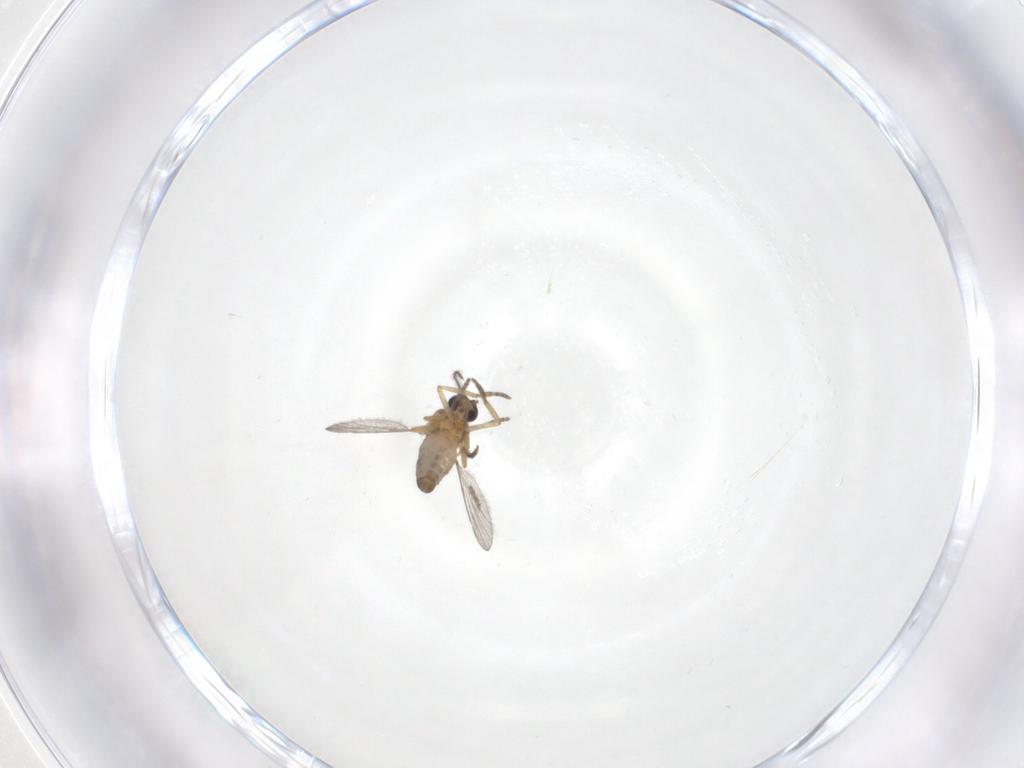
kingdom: Animalia
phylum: Arthropoda
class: Insecta
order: Diptera
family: Chironomidae
